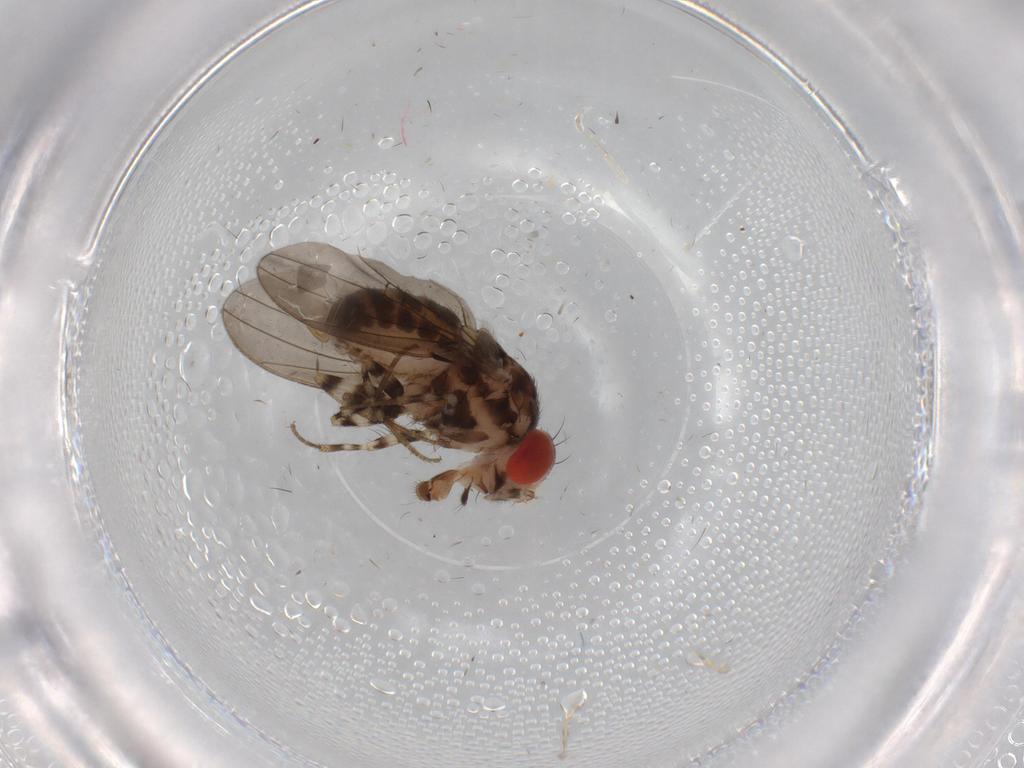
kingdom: Animalia
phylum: Arthropoda
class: Insecta
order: Diptera
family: Drosophilidae
